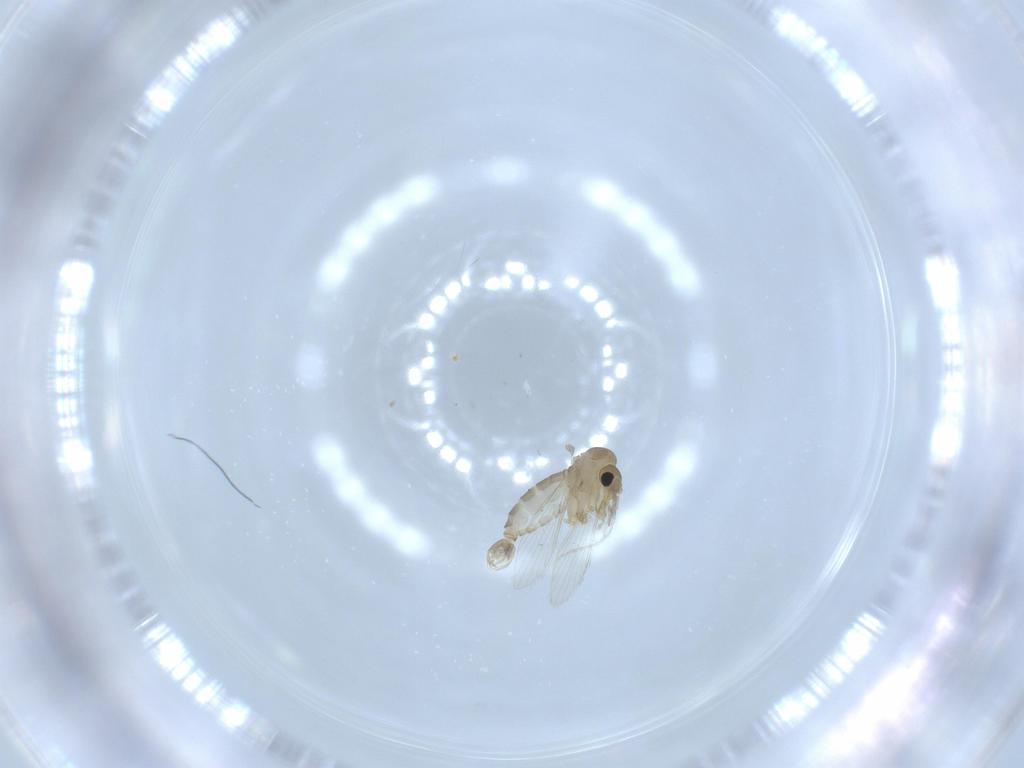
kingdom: Animalia
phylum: Arthropoda
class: Insecta
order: Diptera
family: Psychodidae
